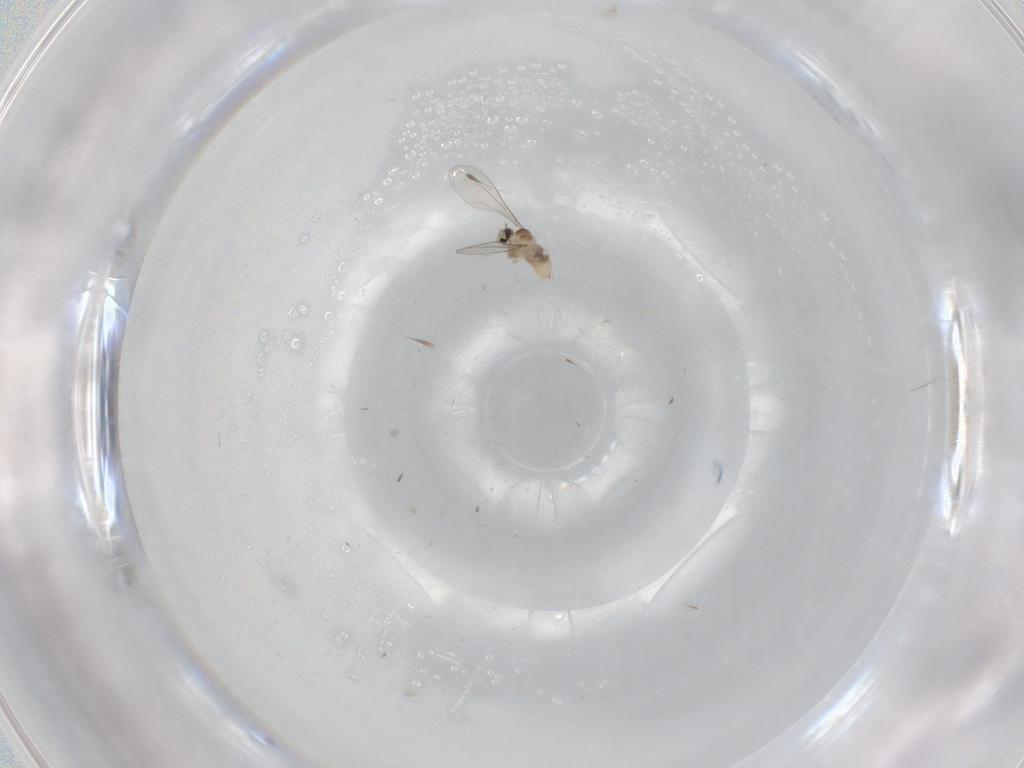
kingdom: Animalia
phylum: Arthropoda
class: Insecta
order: Diptera
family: Cecidomyiidae
